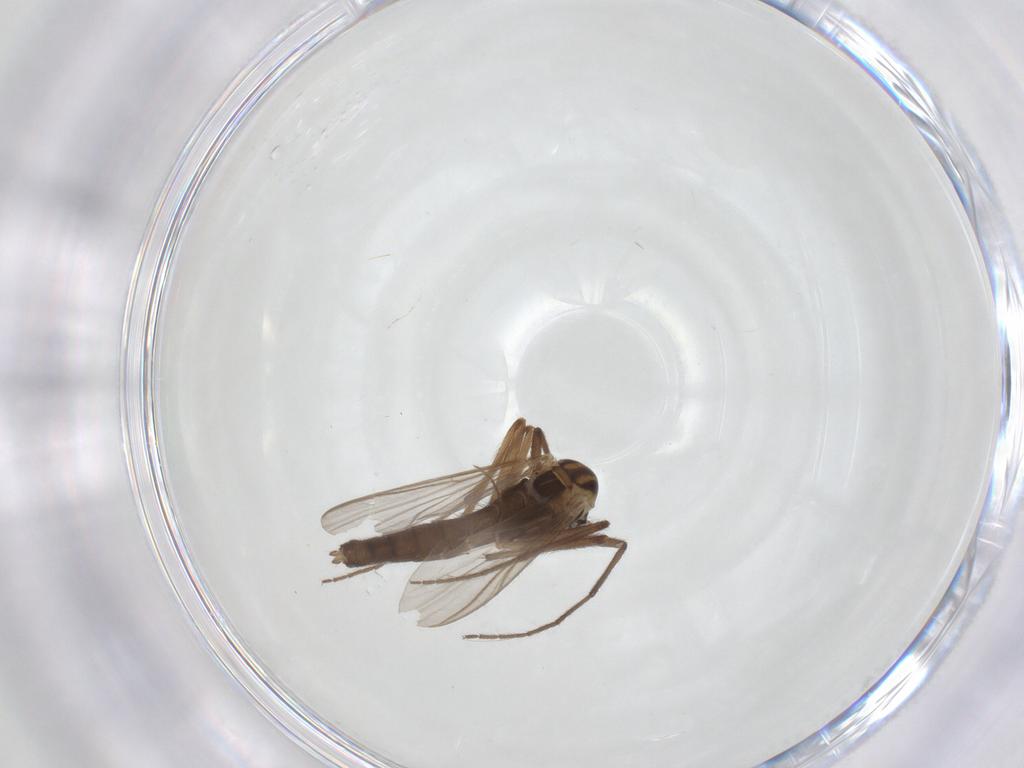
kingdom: Animalia
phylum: Arthropoda
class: Insecta
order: Diptera
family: Chironomidae
